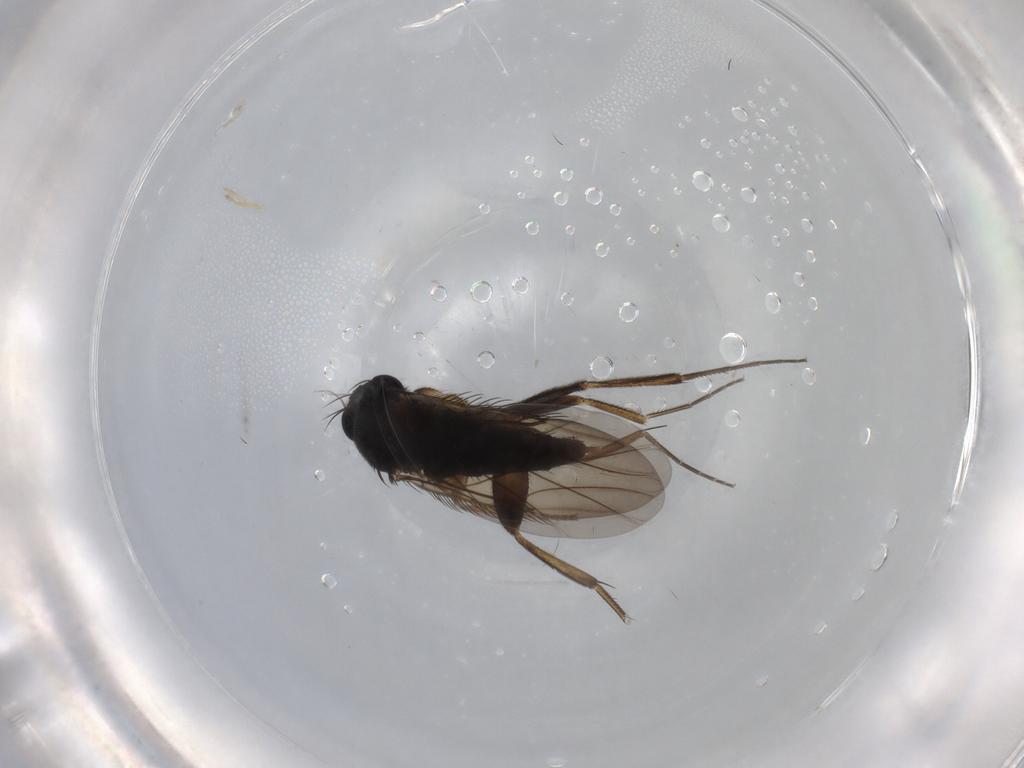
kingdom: Animalia
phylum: Arthropoda
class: Insecta
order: Diptera
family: Phoridae
